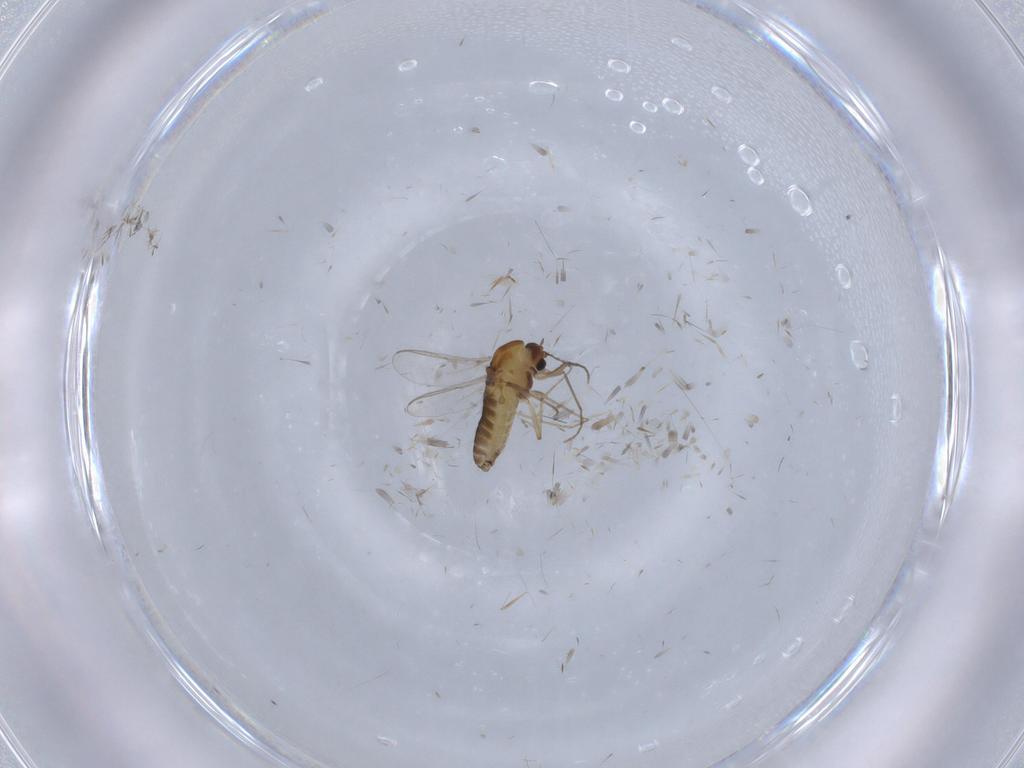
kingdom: Animalia
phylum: Arthropoda
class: Insecta
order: Diptera
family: Chironomidae
